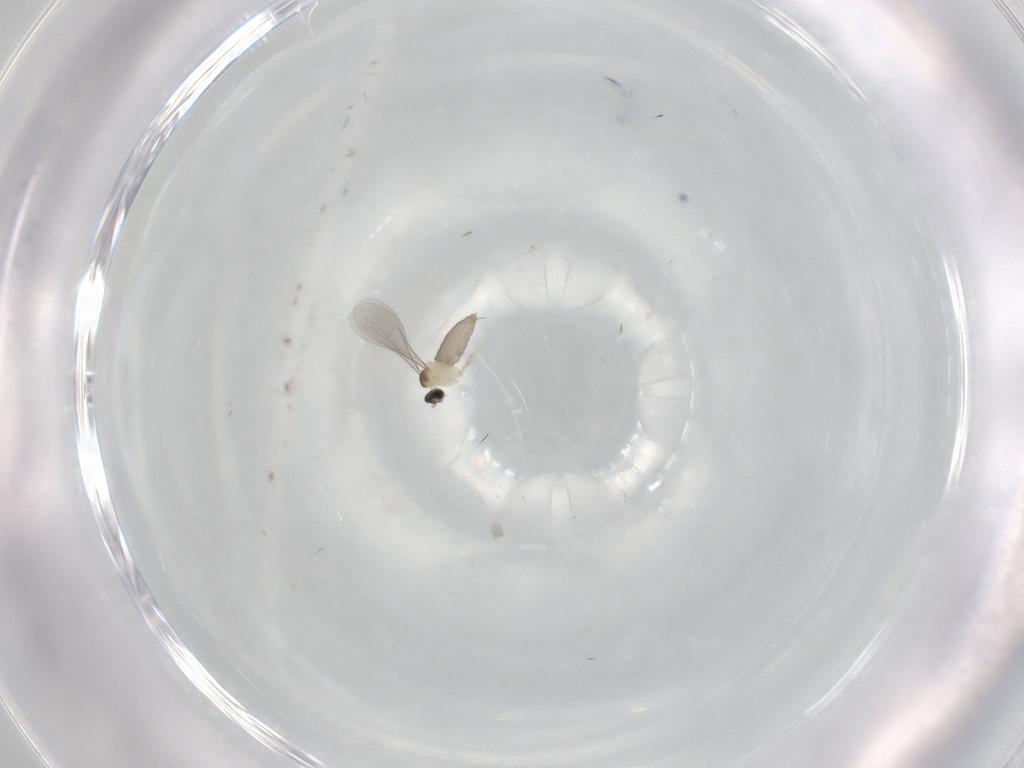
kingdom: Animalia
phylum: Arthropoda
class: Insecta
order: Diptera
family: Cecidomyiidae
